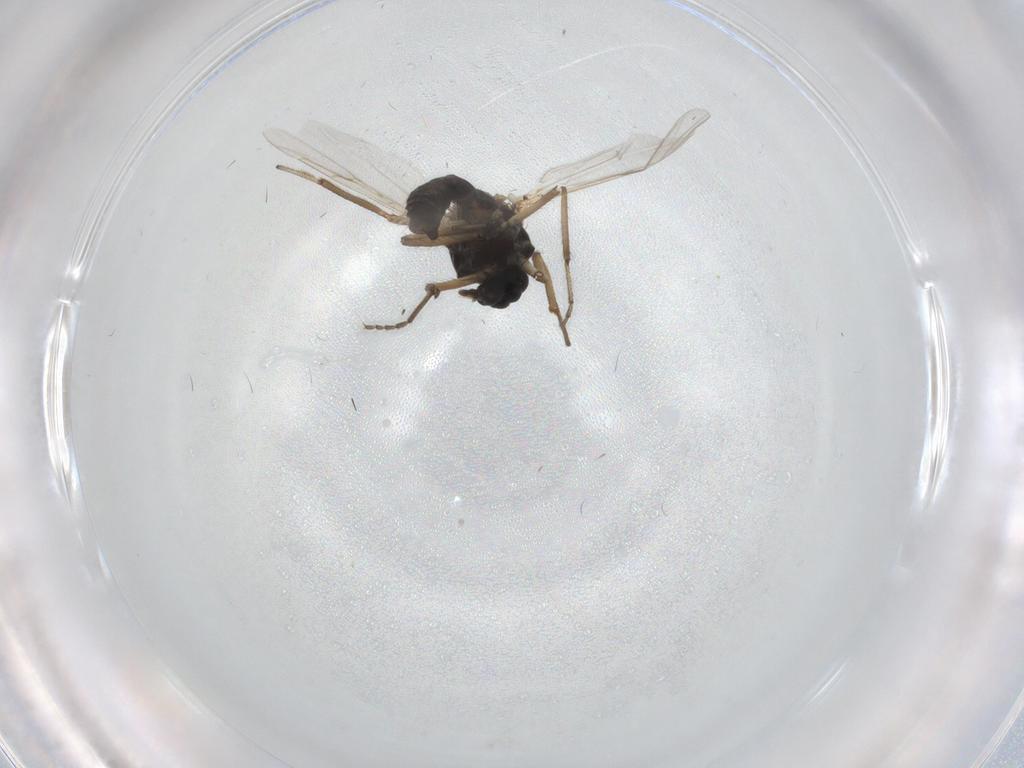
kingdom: Animalia
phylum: Arthropoda
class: Insecta
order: Diptera
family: Ceratopogonidae
